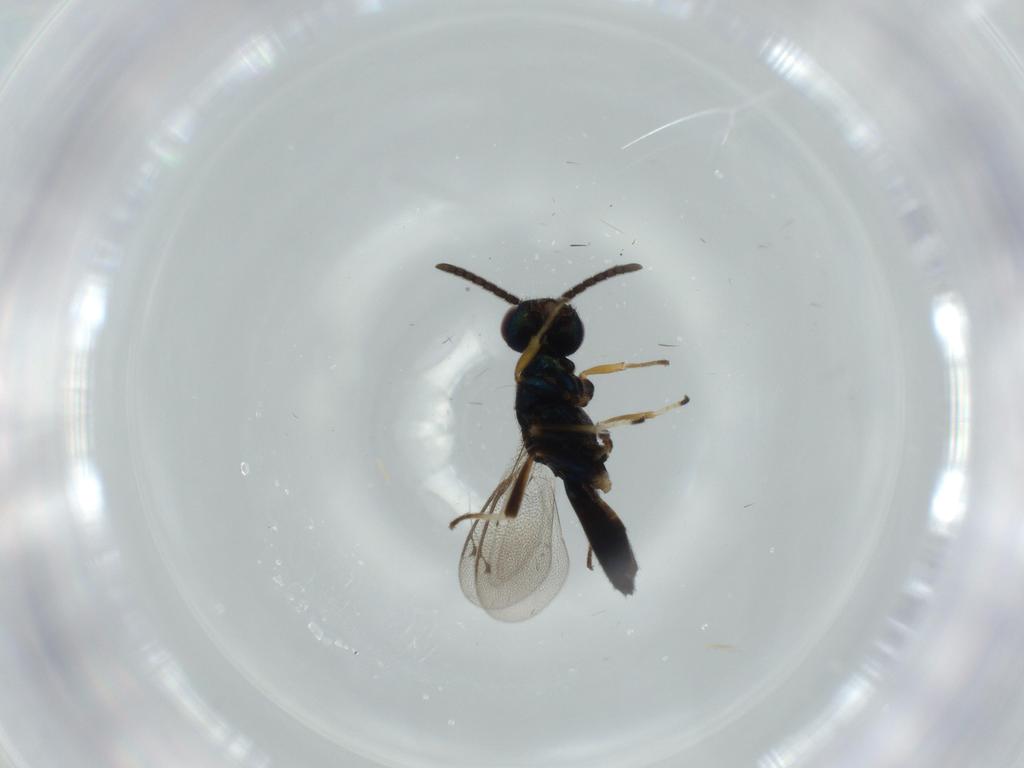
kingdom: Animalia
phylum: Arthropoda
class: Insecta
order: Hymenoptera
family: Eupelmidae
